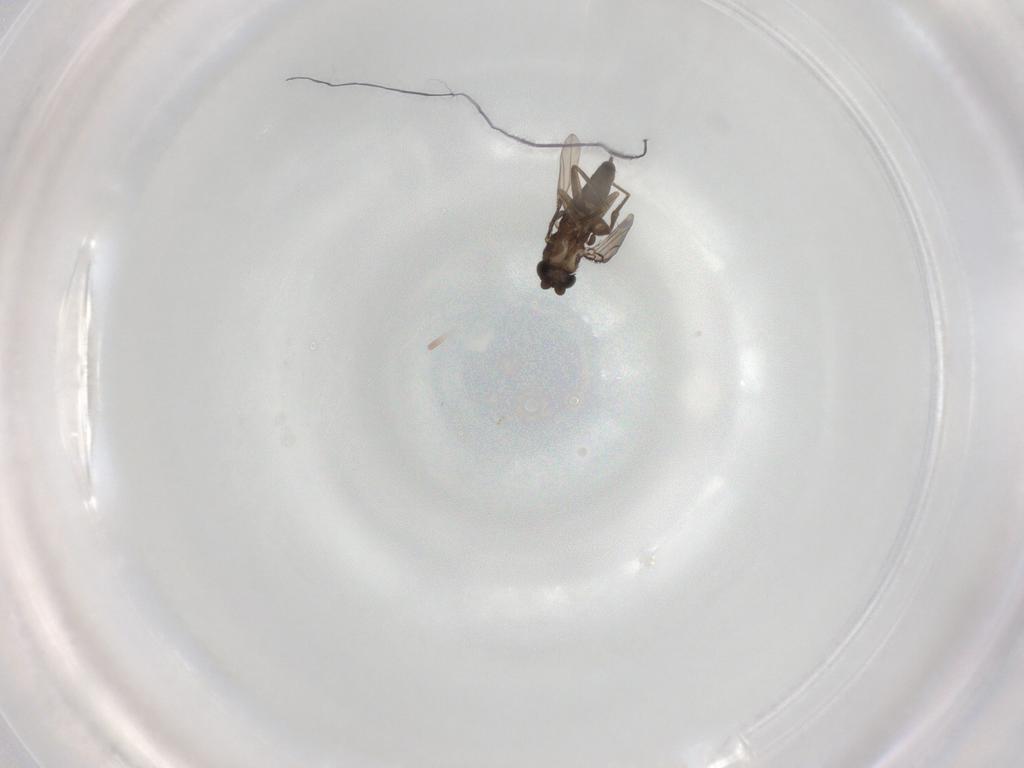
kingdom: Animalia
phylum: Arthropoda
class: Insecta
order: Diptera
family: Phoridae
